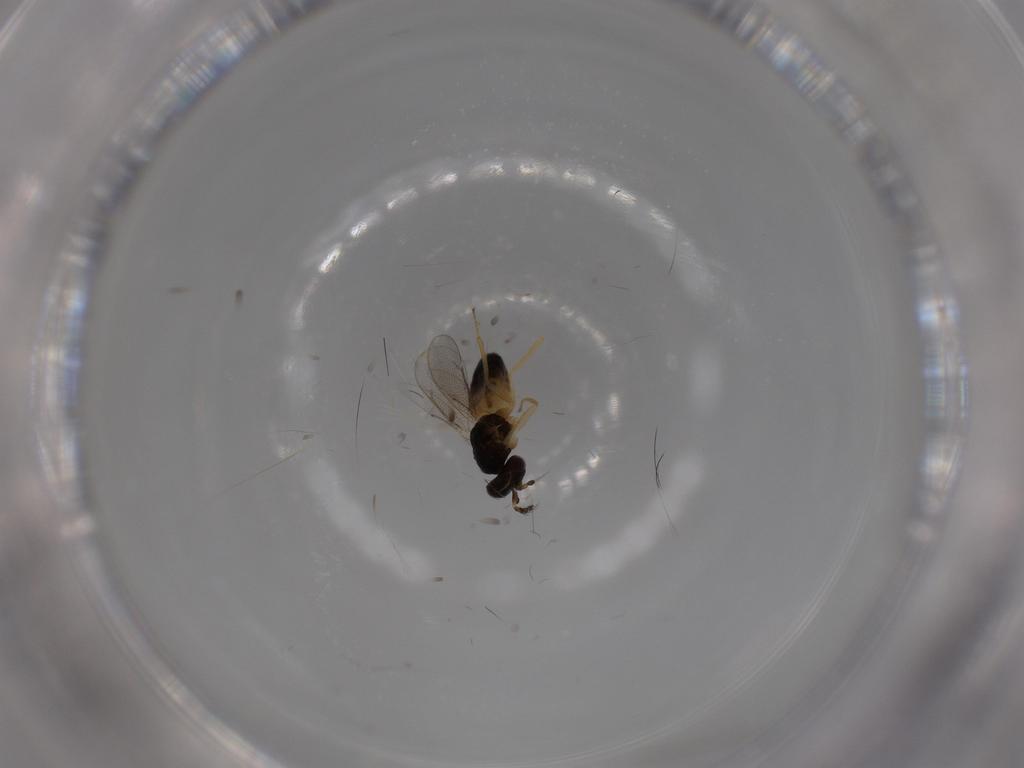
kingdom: Animalia
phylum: Arthropoda
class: Insecta
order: Hymenoptera
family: Eulophidae
